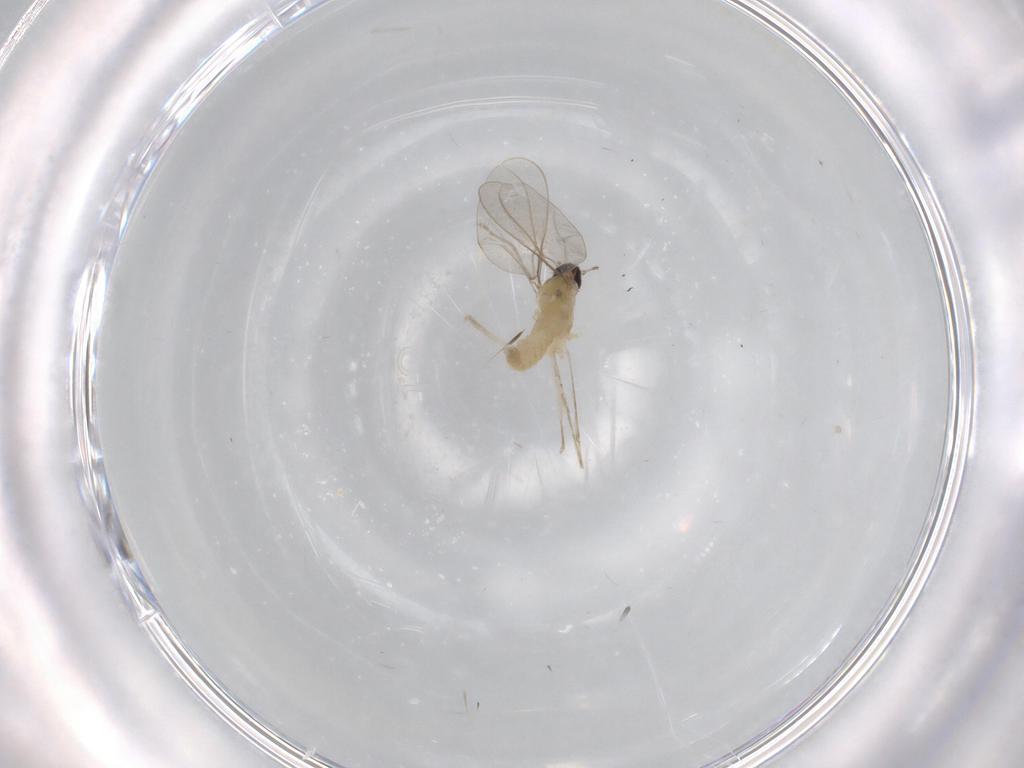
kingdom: Animalia
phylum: Arthropoda
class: Insecta
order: Diptera
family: Cecidomyiidae
